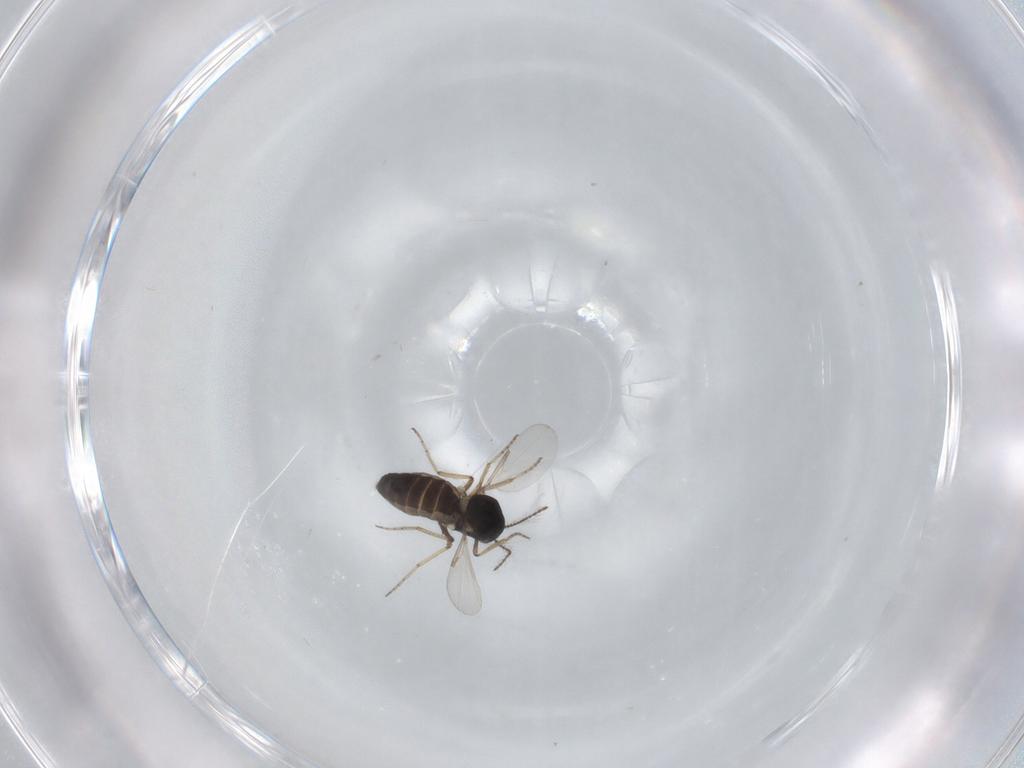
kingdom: Animalia
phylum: Arthropoda
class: Insecta
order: Diptera
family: Ceratopogonidae
